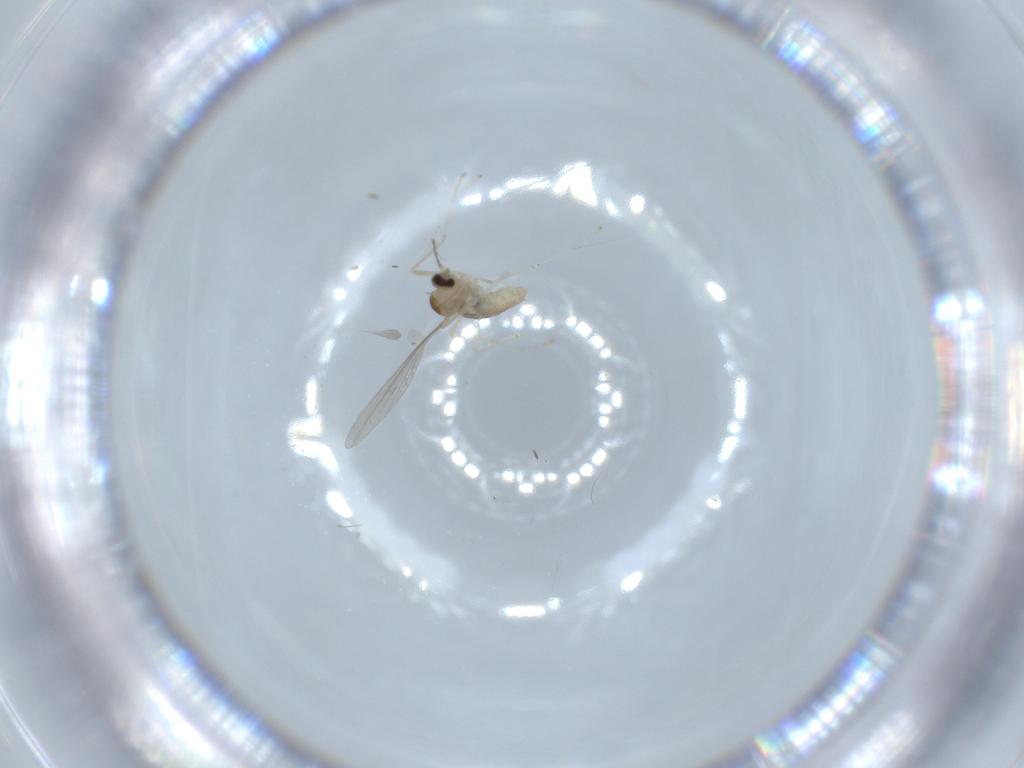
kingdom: Animalia
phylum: Arthropoda
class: Insecta
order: Diptera
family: Cecidomyiidae
